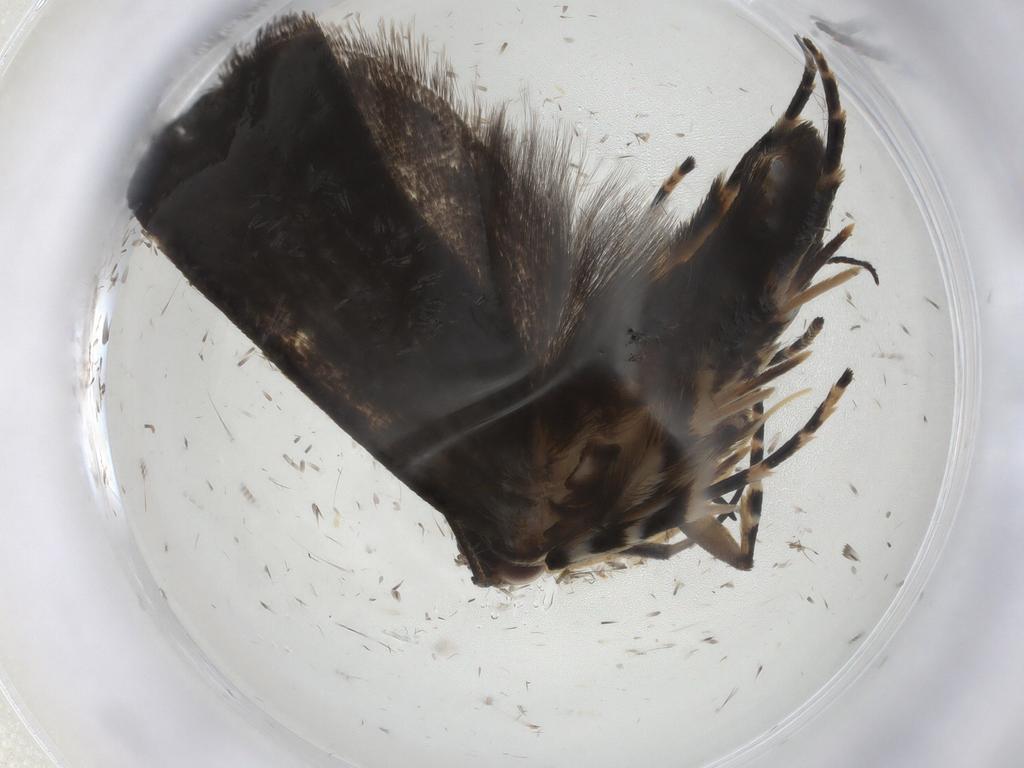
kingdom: Animalia
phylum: Arthropoda
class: Insecta
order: Lepidoptera
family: Crambidae
